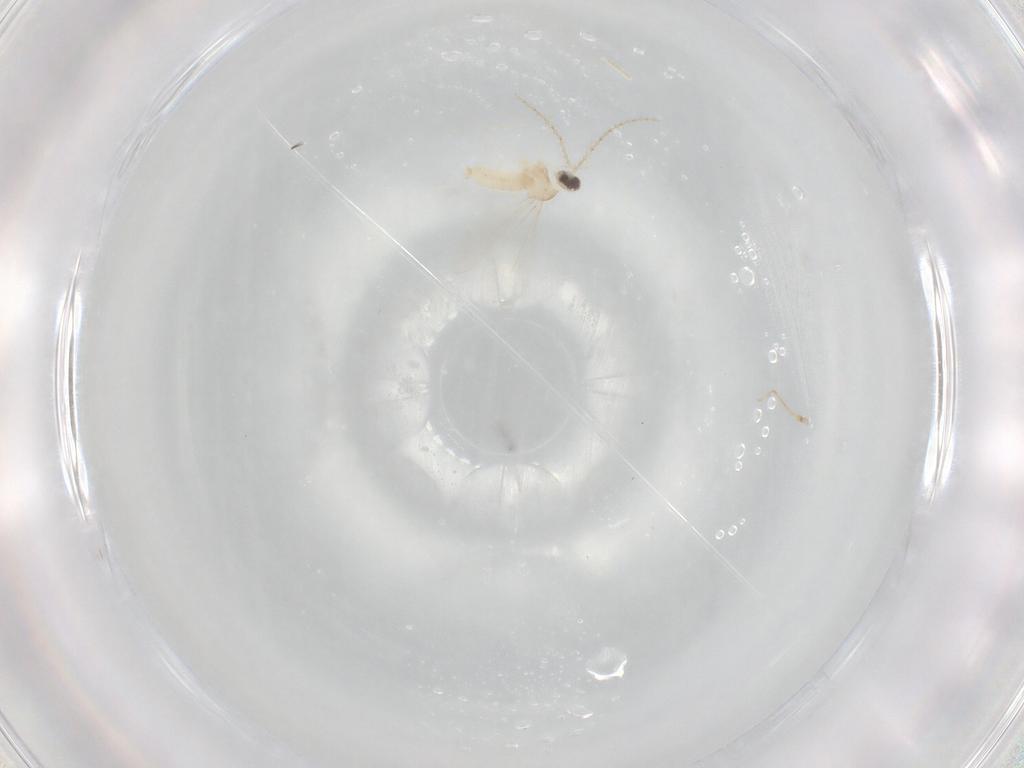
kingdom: Animalia
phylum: Arthropoda
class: Insecta
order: Diptera
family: Cecidomyiidae
